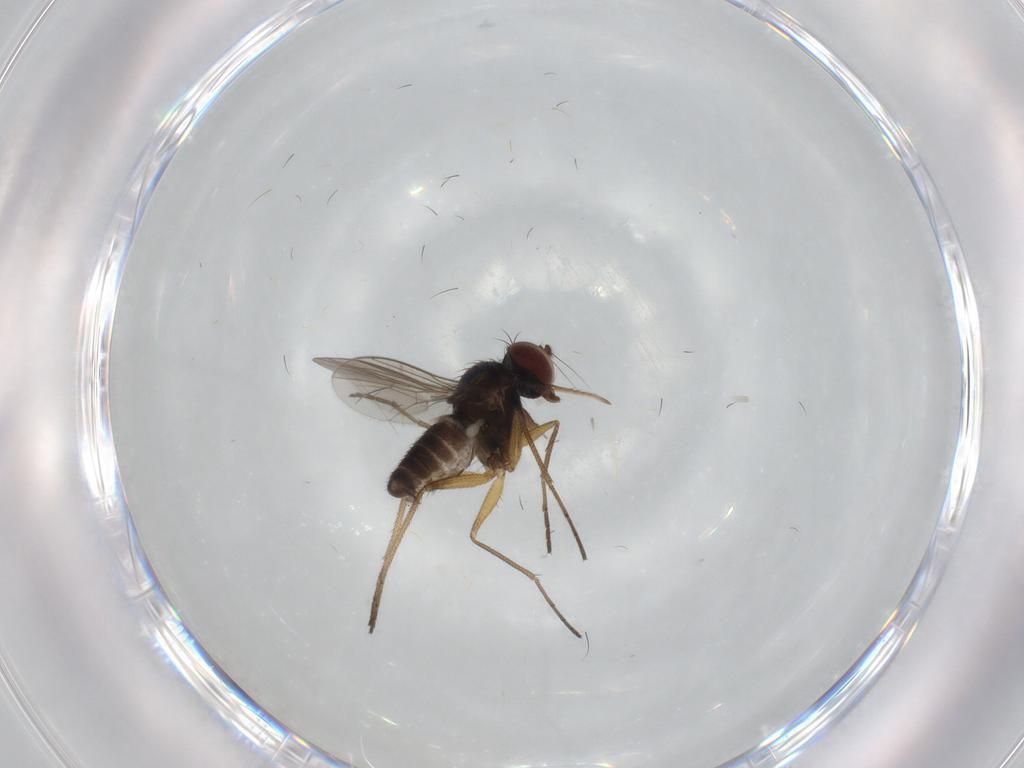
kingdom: Animalia
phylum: Arthropoda
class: Insecta
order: Diptera
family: Dolichopodidae
